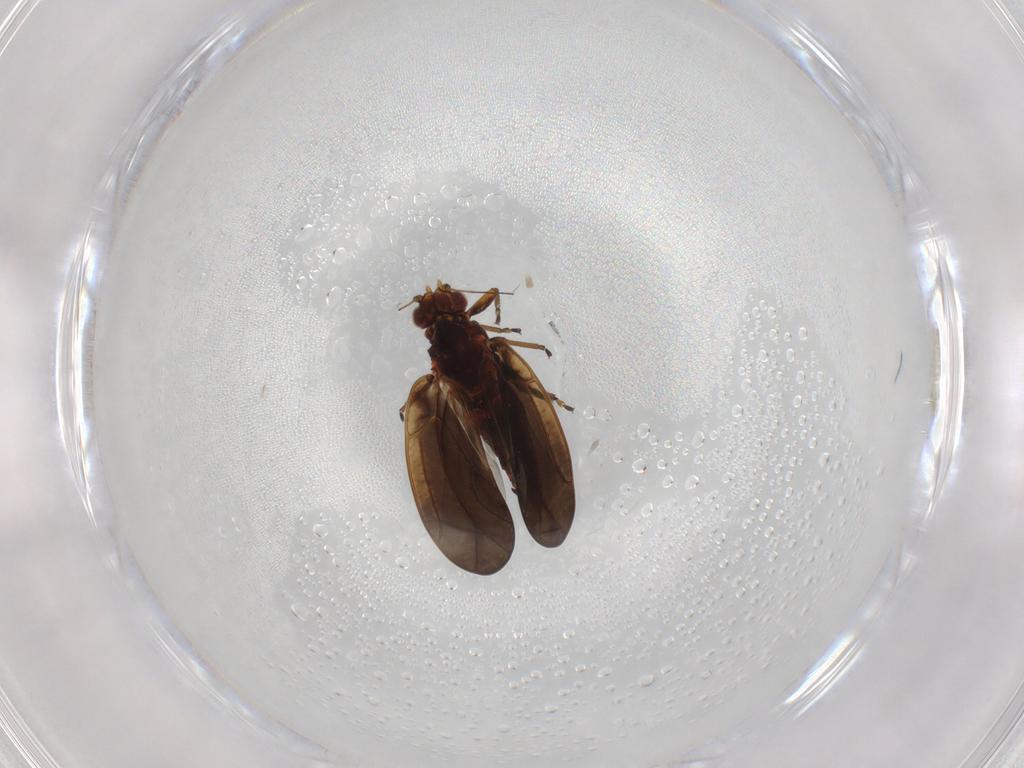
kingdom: Animalia
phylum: Arthropoda
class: Insecta
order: Hemiptera
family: Triozidae
